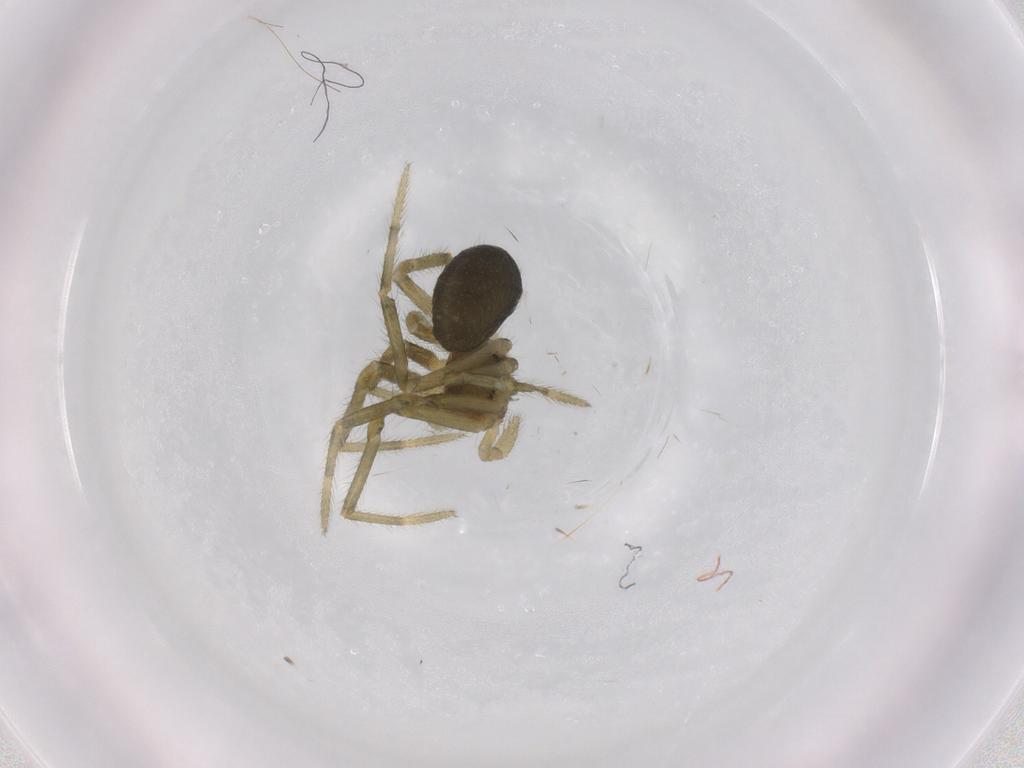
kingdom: Animalia
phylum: Arthropoda
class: Arachnida
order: Araneae
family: Nesticidae
